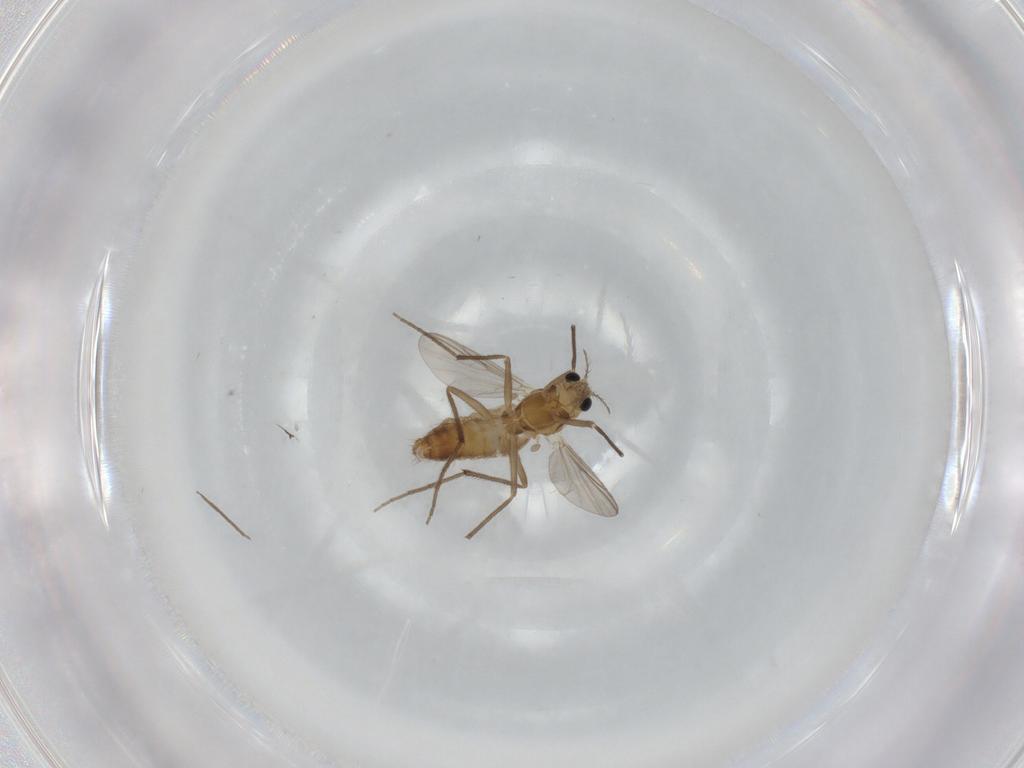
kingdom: Animalia
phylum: Arthropoda
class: Insecta
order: Diptera
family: Chironomidae
